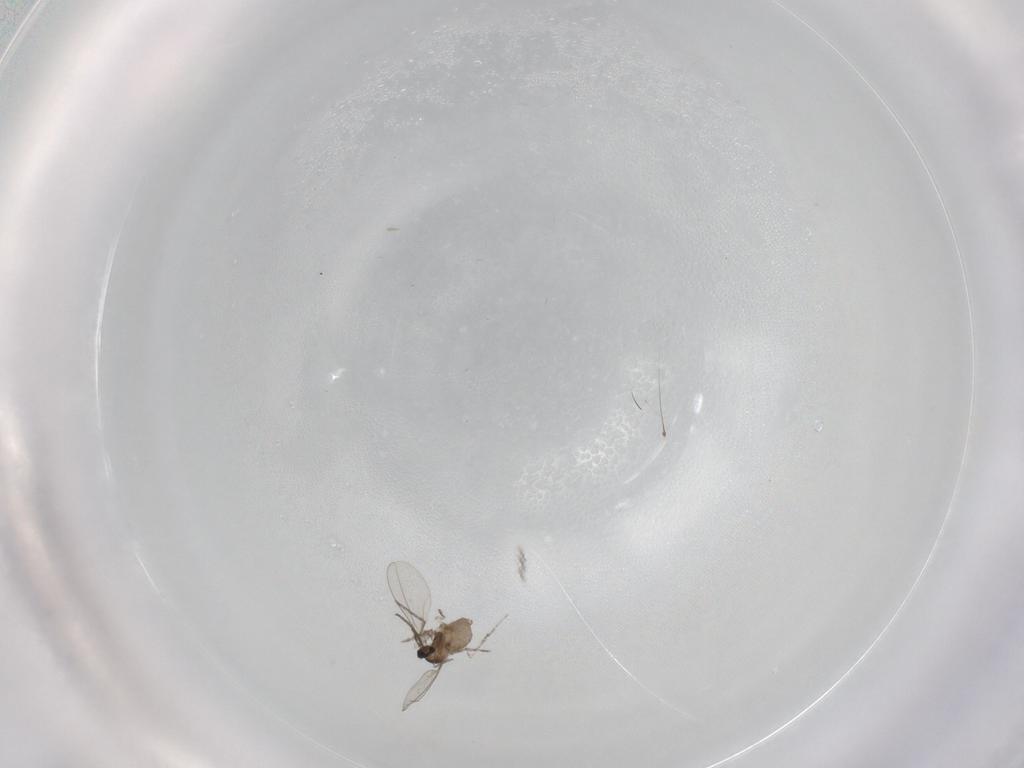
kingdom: Animalia
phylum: Arthropoda
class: Insecta
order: Diptera
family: Cecidomyiidae
